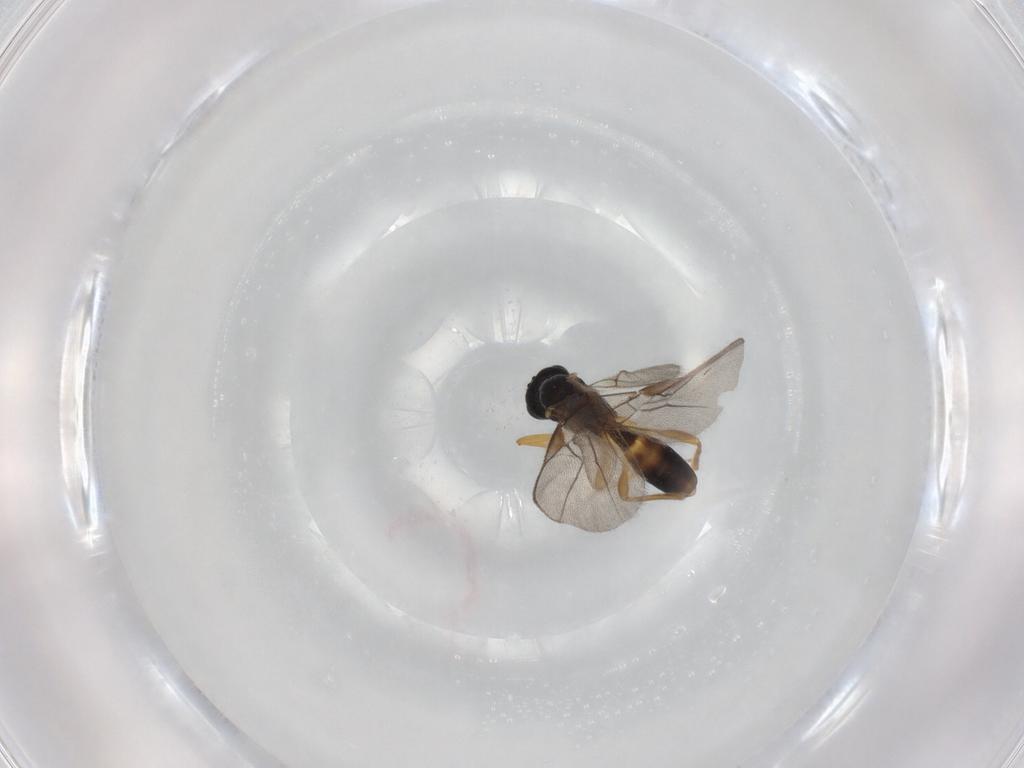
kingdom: Animalia
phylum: Arthropoda
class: Insecta
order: Hymenoptera
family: Braconidae
